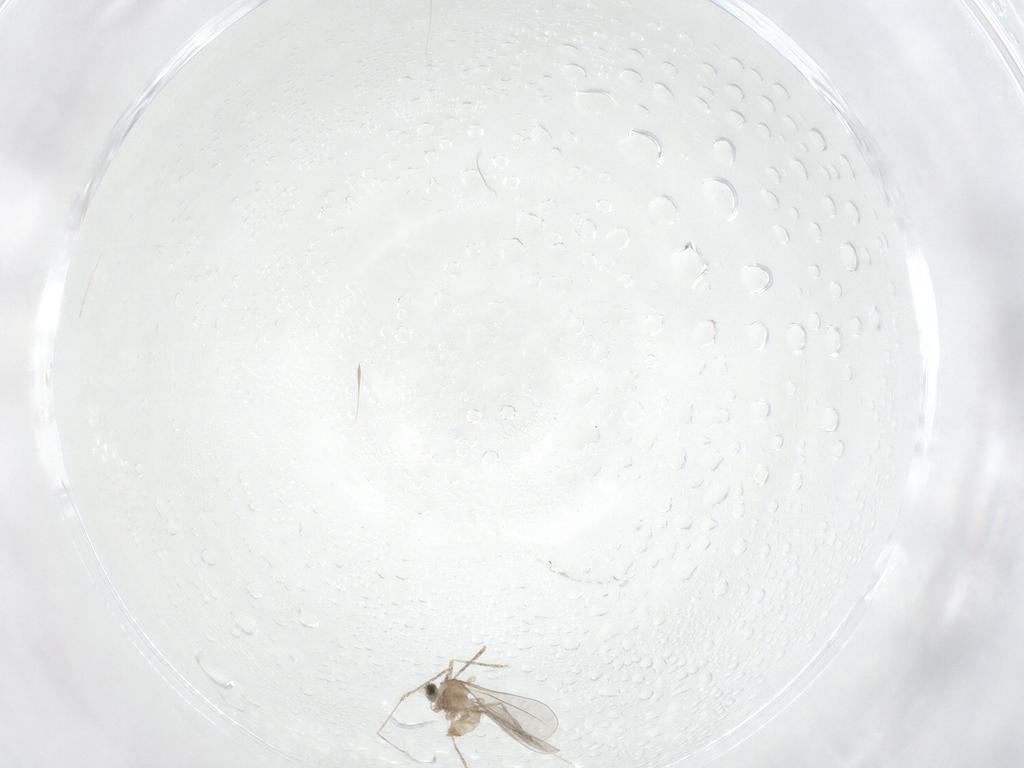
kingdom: Animalia
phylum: Arthropoda
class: Insecta
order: Diptera
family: Cecidomyiidae
